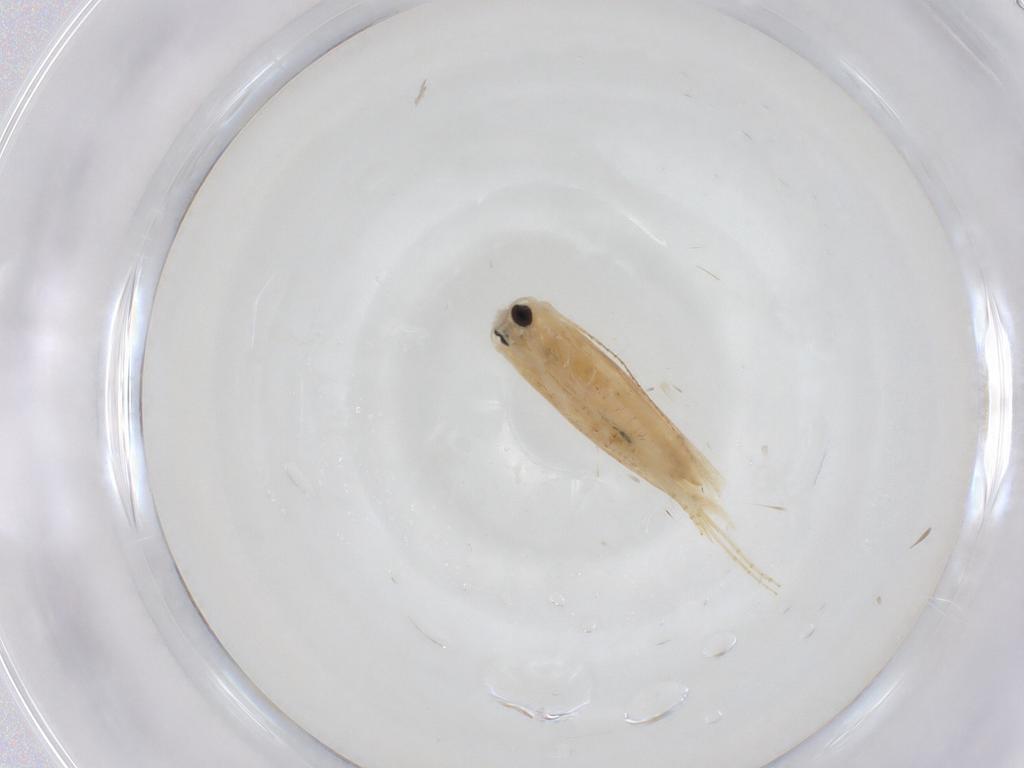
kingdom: Animalia
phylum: Arthropoda
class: Insecta
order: Lepidoptera
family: Bucculatricidae
